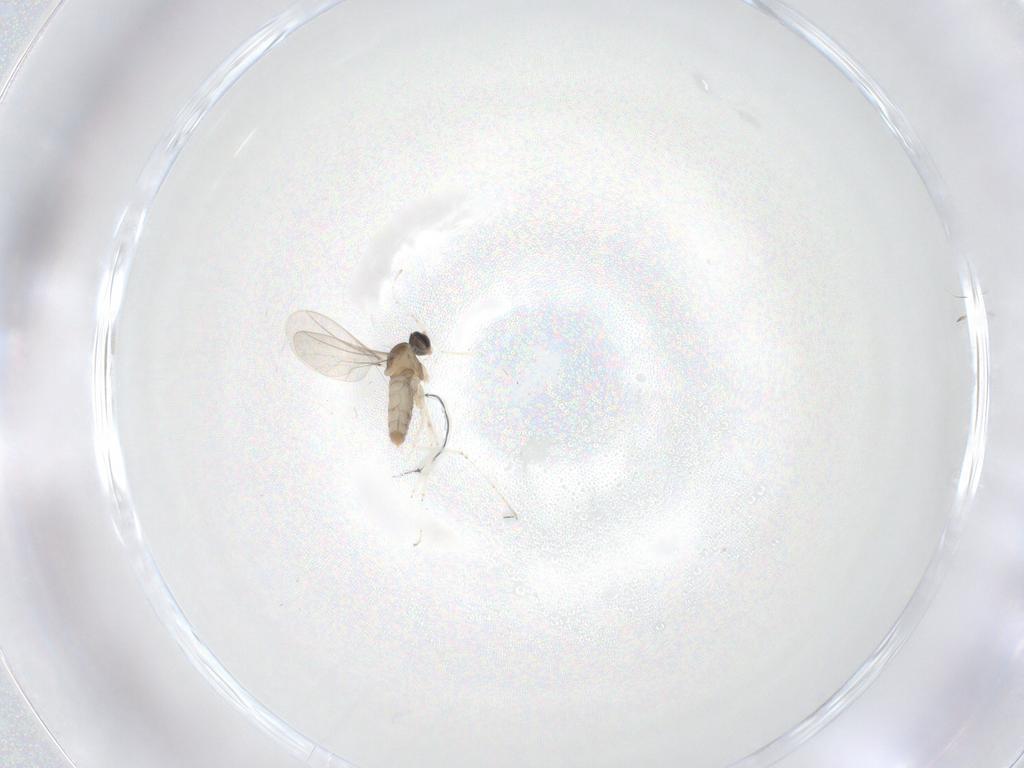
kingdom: Animalia
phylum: Arthropoda
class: Insecta
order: Diptera
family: Cecidomyiidae
